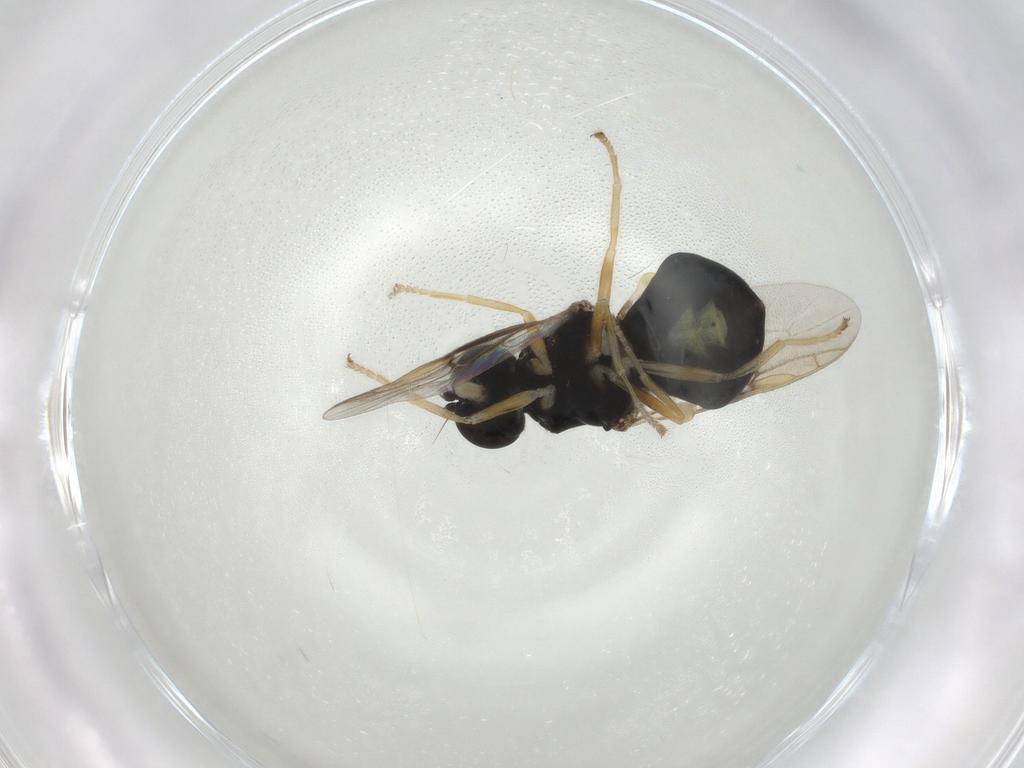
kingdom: Animalia
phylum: Arthropoda
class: Insecta
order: Diptera
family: Stratiomyidae
